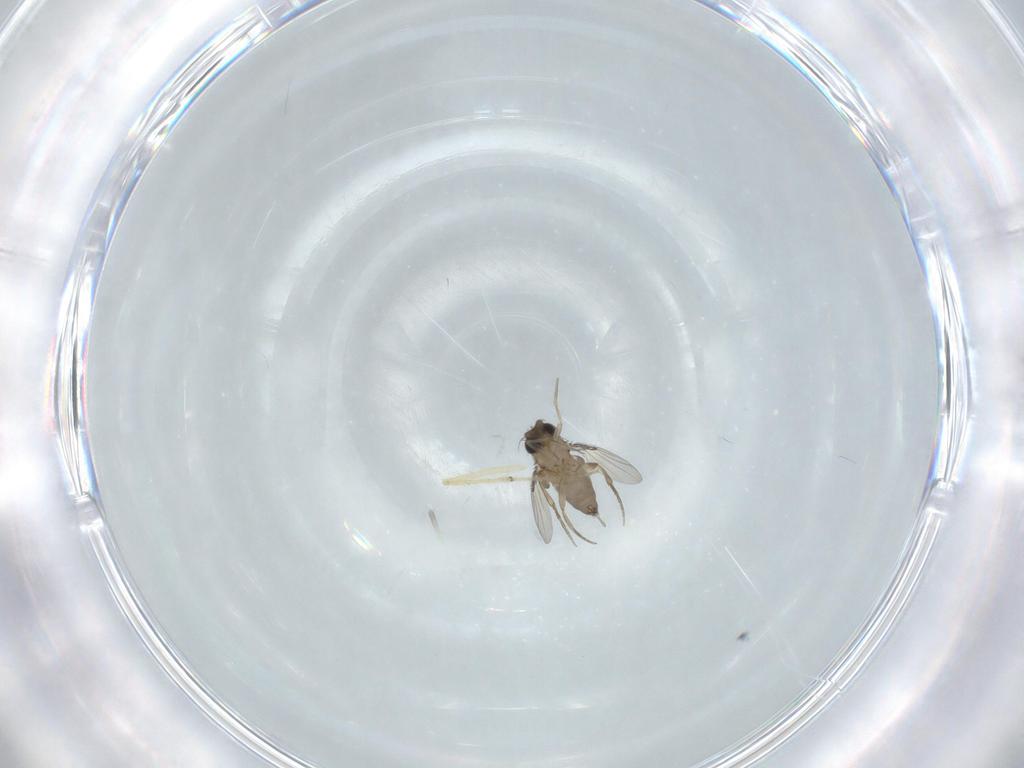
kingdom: Animalia
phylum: Arthropoda
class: Insecta
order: Diptera
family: Phoridae
